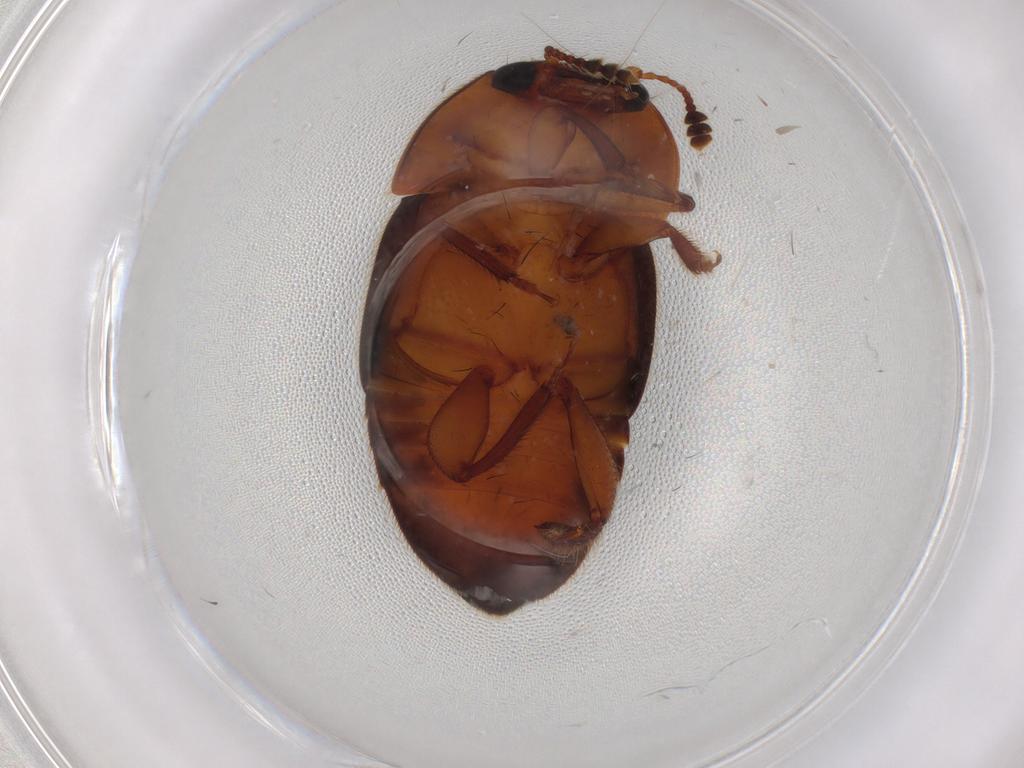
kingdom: Animalia
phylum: Arthropoda
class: Insecta
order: Coleoptera
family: Nitidulidae
